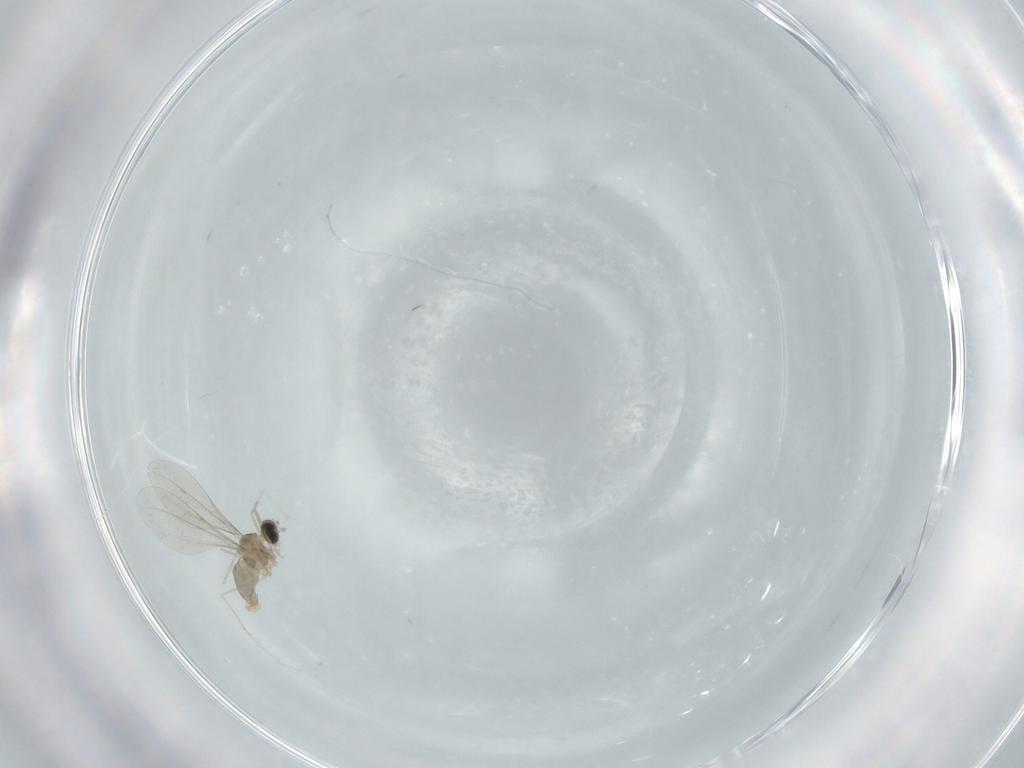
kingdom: Animalia
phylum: Arthropoda
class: Insecta
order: Diptera
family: Cecidomyiidae
